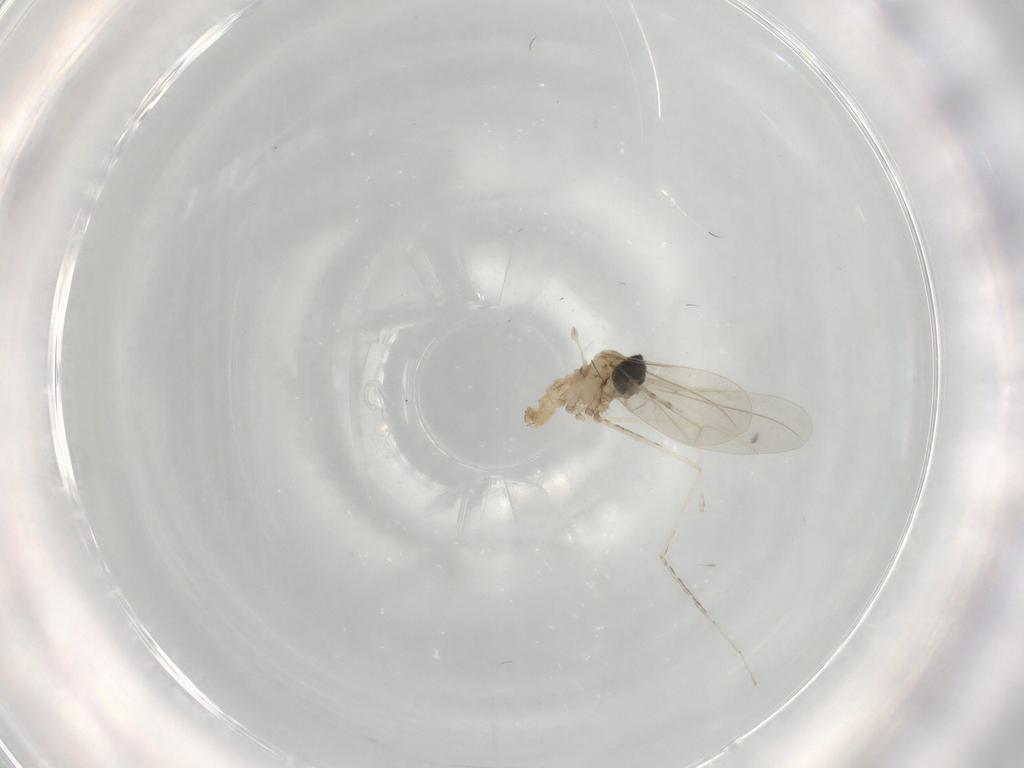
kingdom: Animalia
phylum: Arthropoda
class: Insecta
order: Diptera
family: Cecidomyiidae
